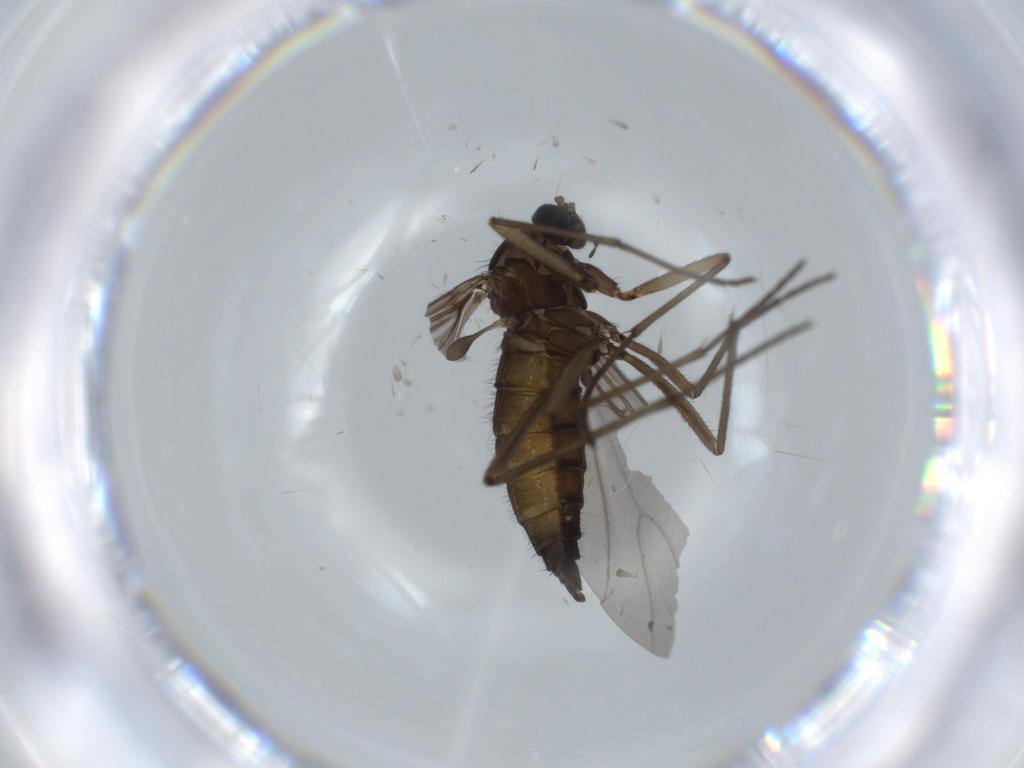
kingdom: Animalia
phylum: Arthropoda
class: Insecta
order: Diptera
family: Sciaridae
